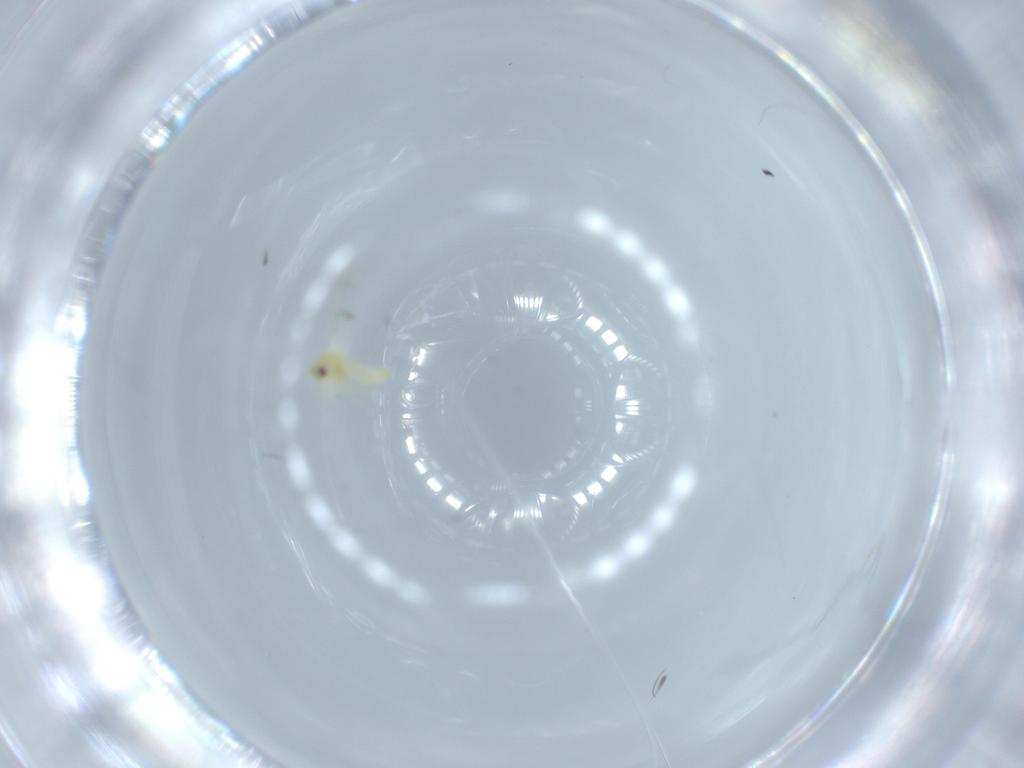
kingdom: Animalia
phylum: Arthropoda
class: Insecta
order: Hemiptera
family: Aleyrodidae
